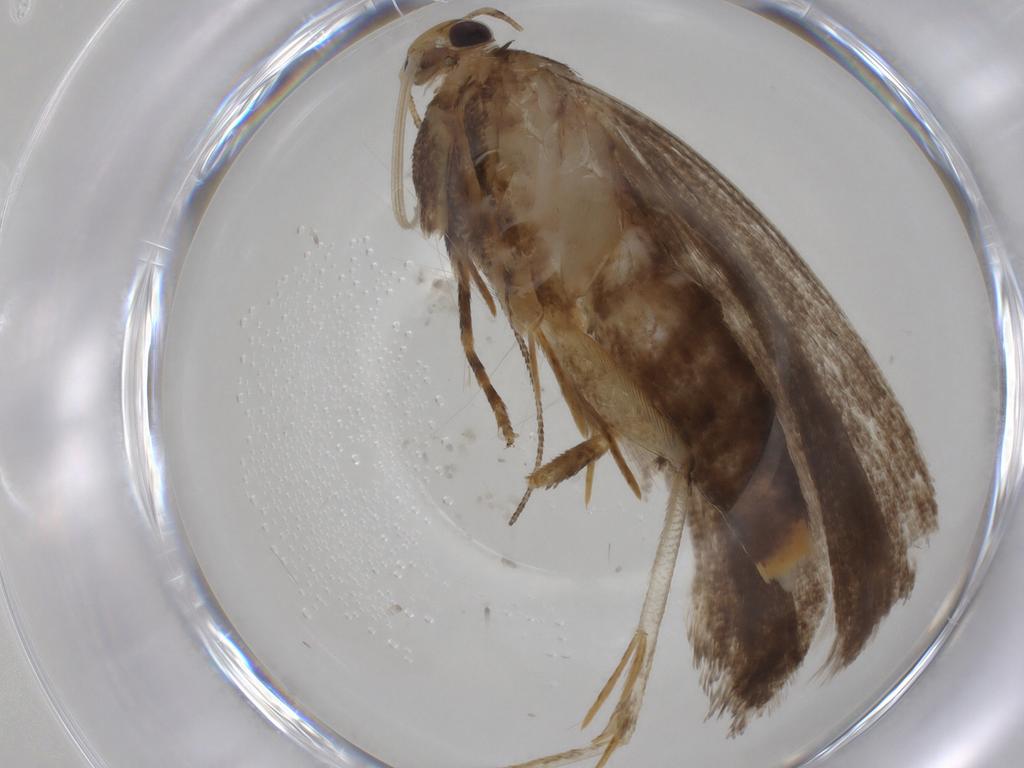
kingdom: Animalia
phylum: Arthropoda
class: Insecta
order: Lepidoptera
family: Gelechiidae
